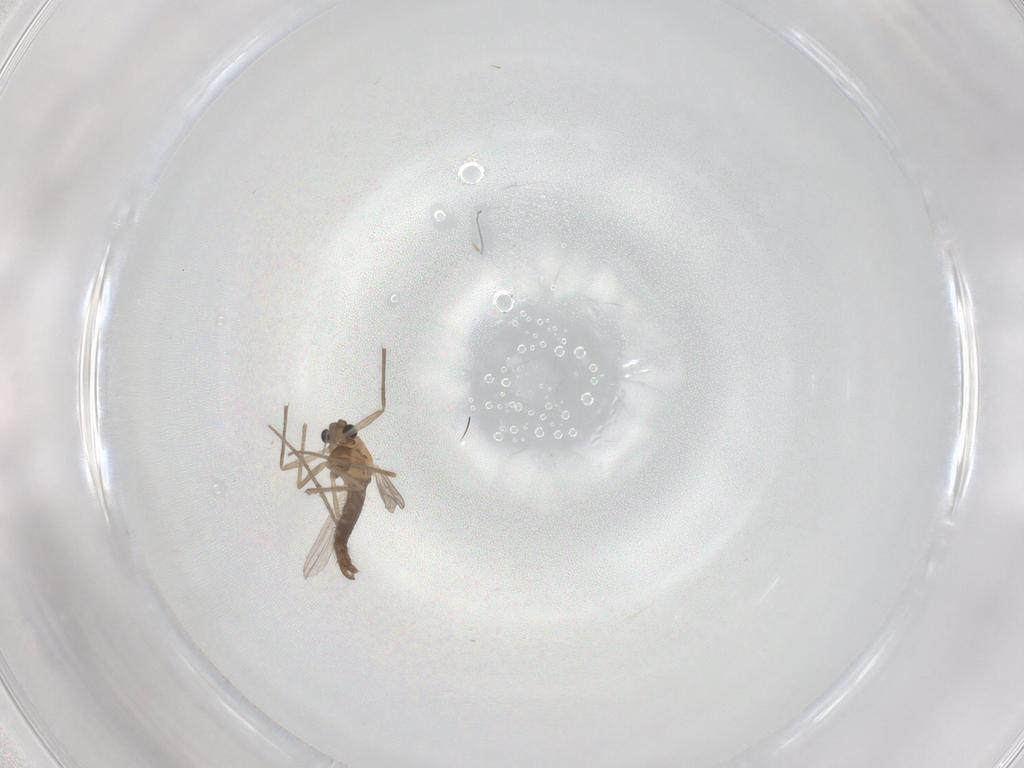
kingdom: Animalia
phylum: Arthropoda
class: Insecta
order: Diptera
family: Chironomidae
